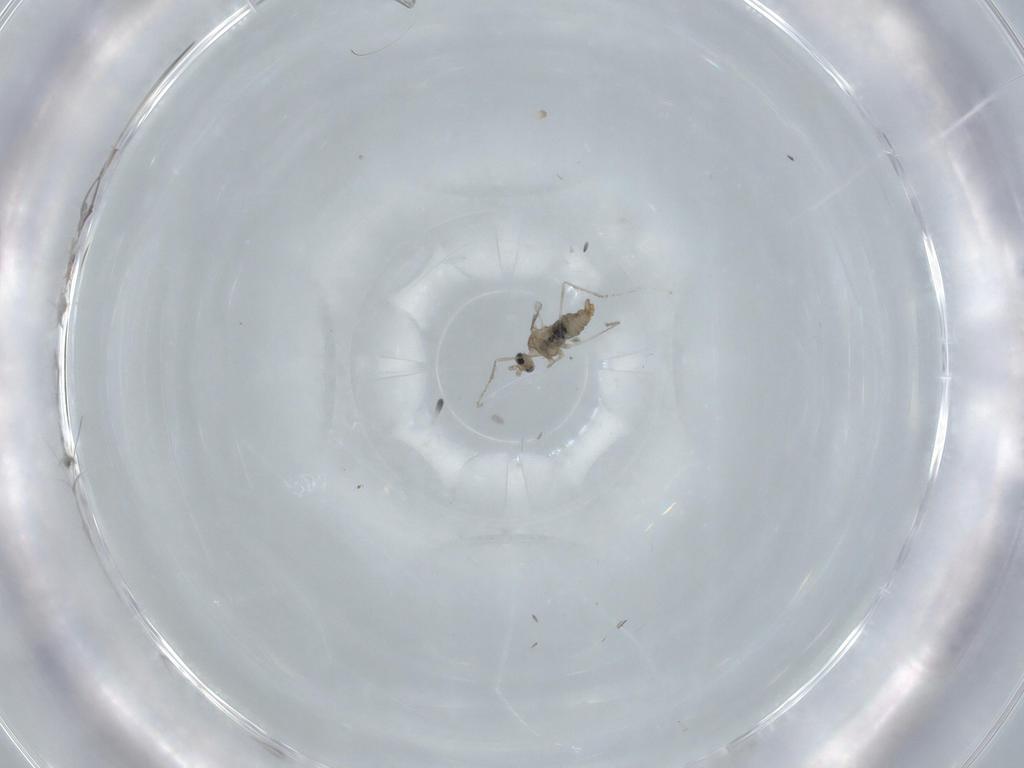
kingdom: Animalia
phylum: Arthropoda
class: Insecta
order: Diptera
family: Cecidomyiidae
